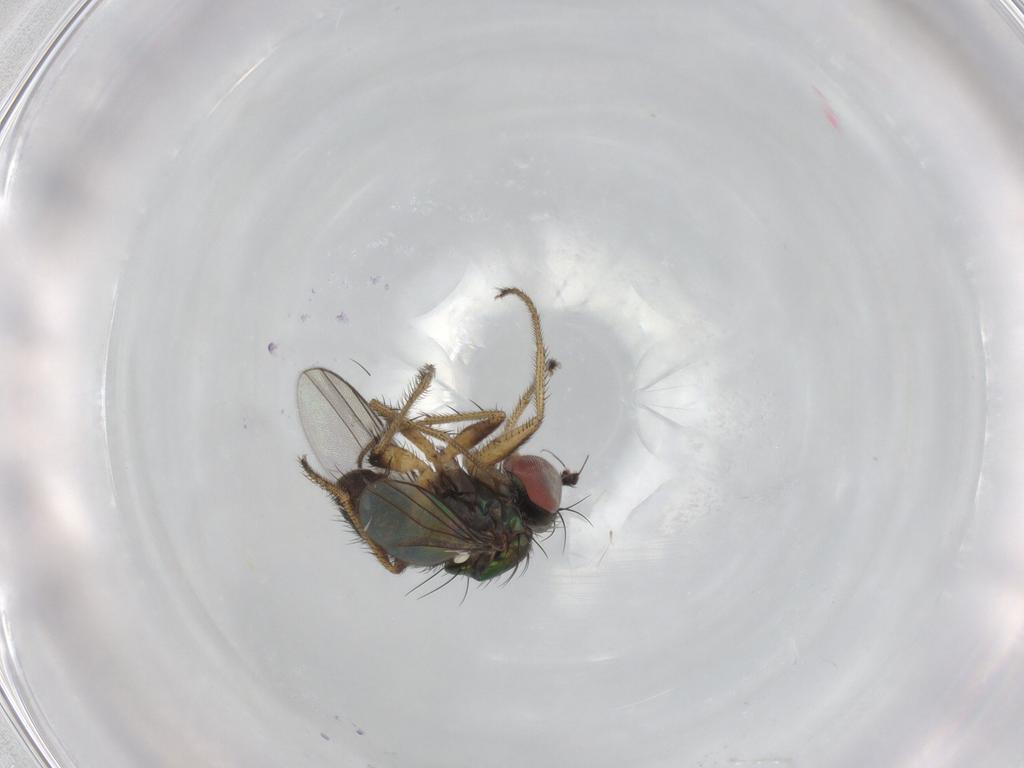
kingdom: Animalia
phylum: Arthropoda
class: Insecta
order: Diptera
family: Dolichopodidae
